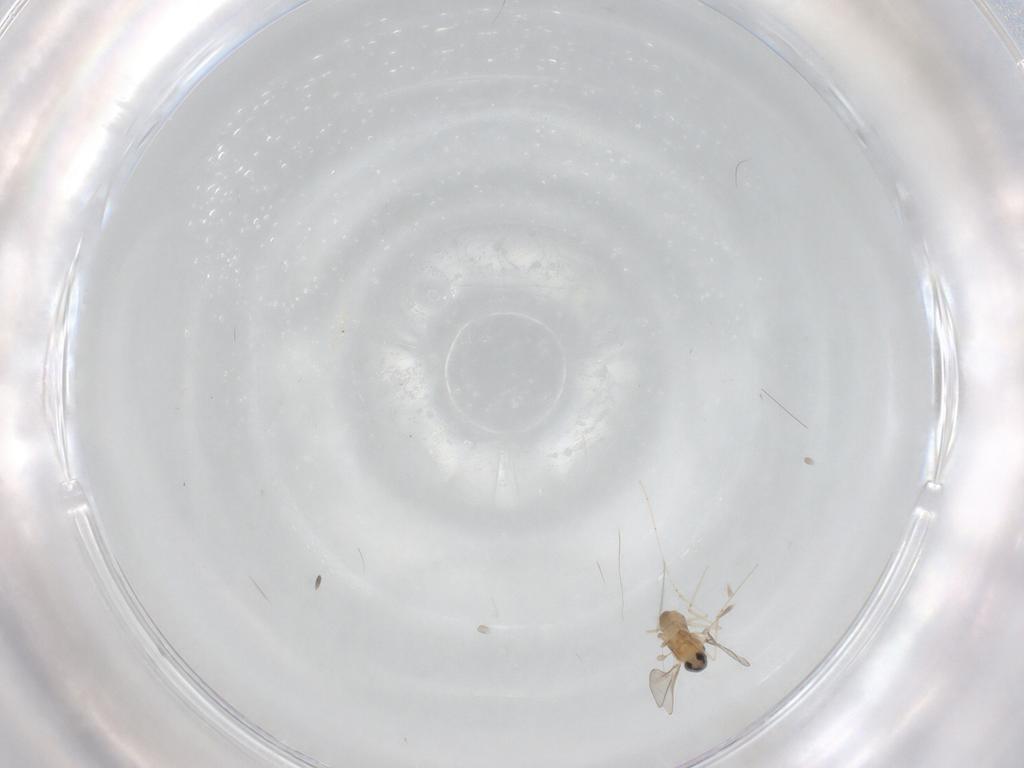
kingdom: Animalia
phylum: Arthropoda
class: Insecta
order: Diptera
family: Cecidomyiidae
